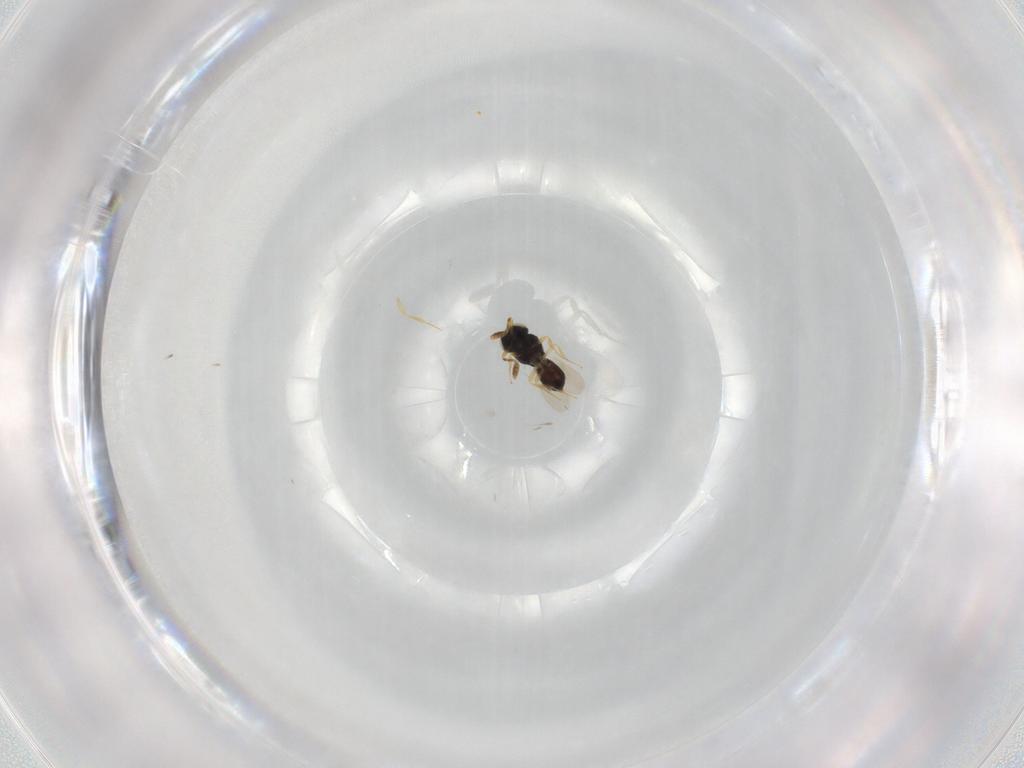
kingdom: Animalia
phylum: Arthropoda
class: Insecta
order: Hymenoptera
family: Scelionidae
